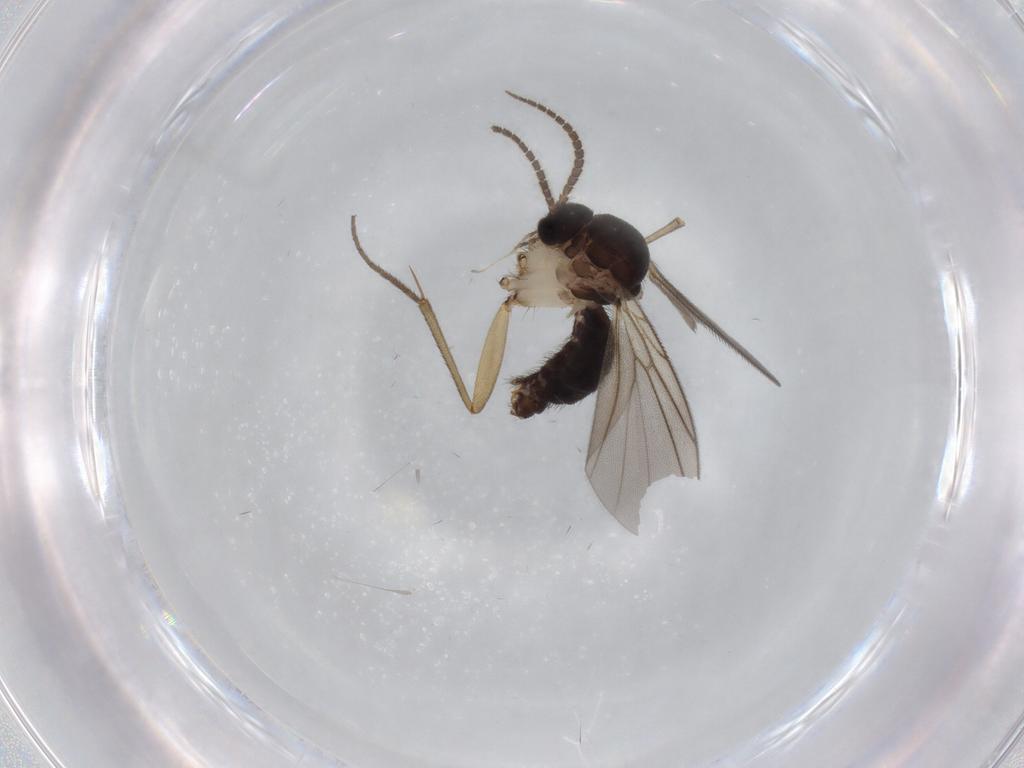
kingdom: Animalia
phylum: Arthropoda
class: Insecta
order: Diptera
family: Mycetophilidae
